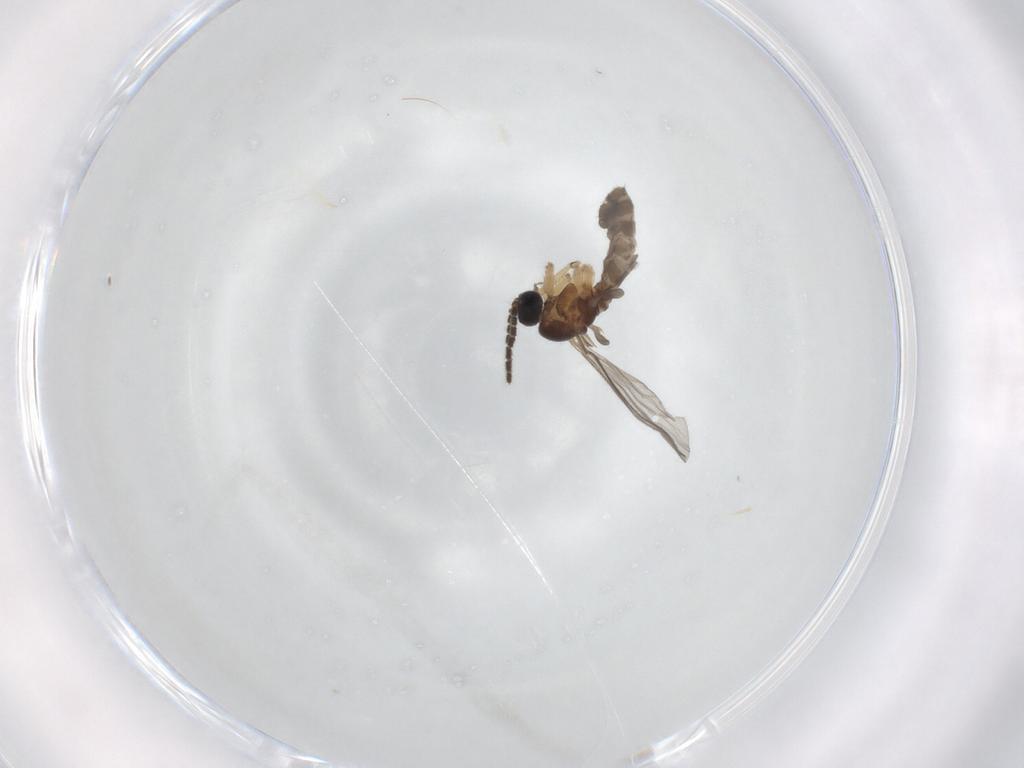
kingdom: Animalia
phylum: Arthropoda
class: Insecta
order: Diptera
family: Sciaridae
